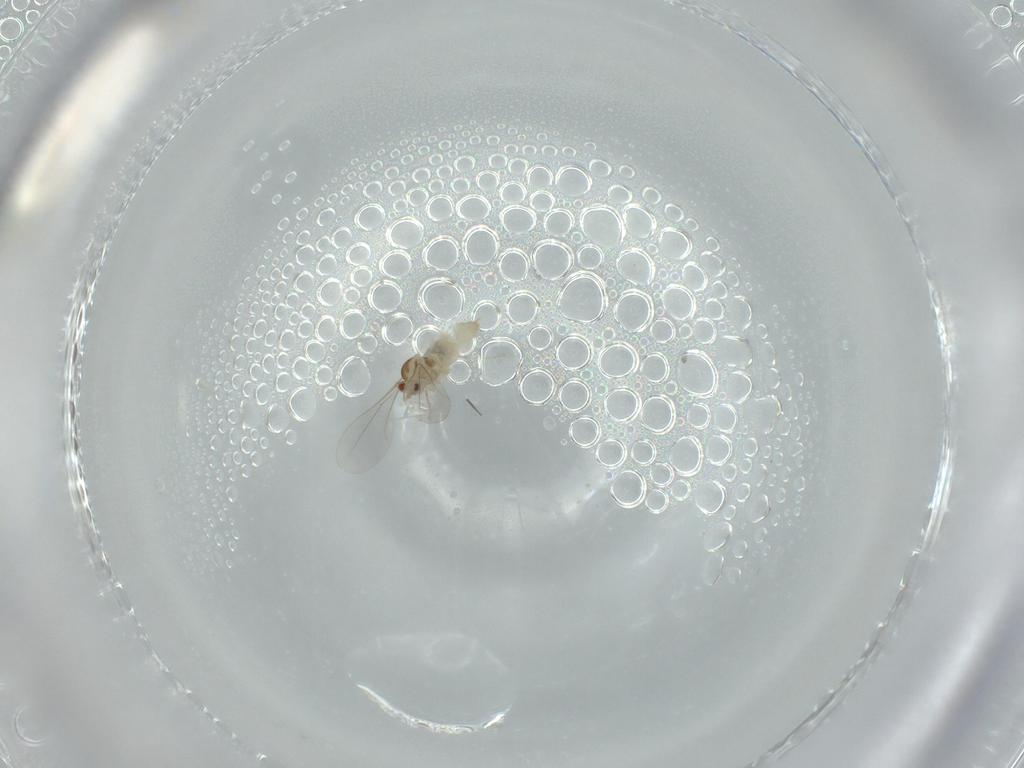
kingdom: Animalia
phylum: Arthropoda
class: Insecta
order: Diptera
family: Cecidomyiidae
